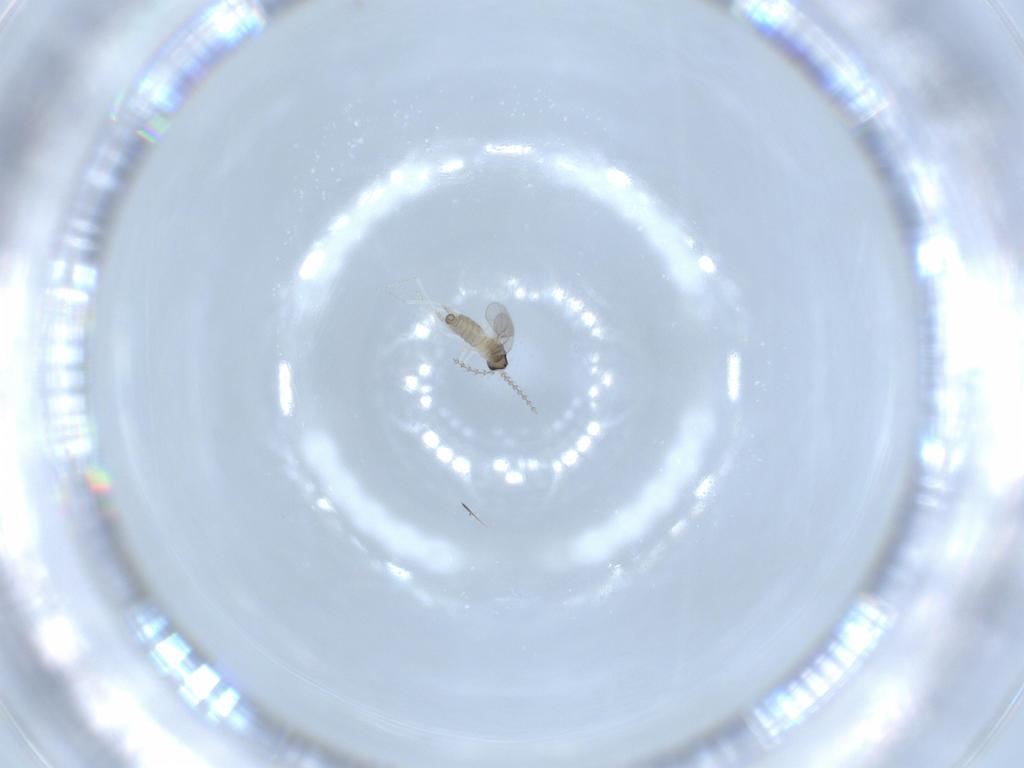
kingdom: Animalia
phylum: Arthropoda
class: Insecta
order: Diptera
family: Cecidomyiidae
